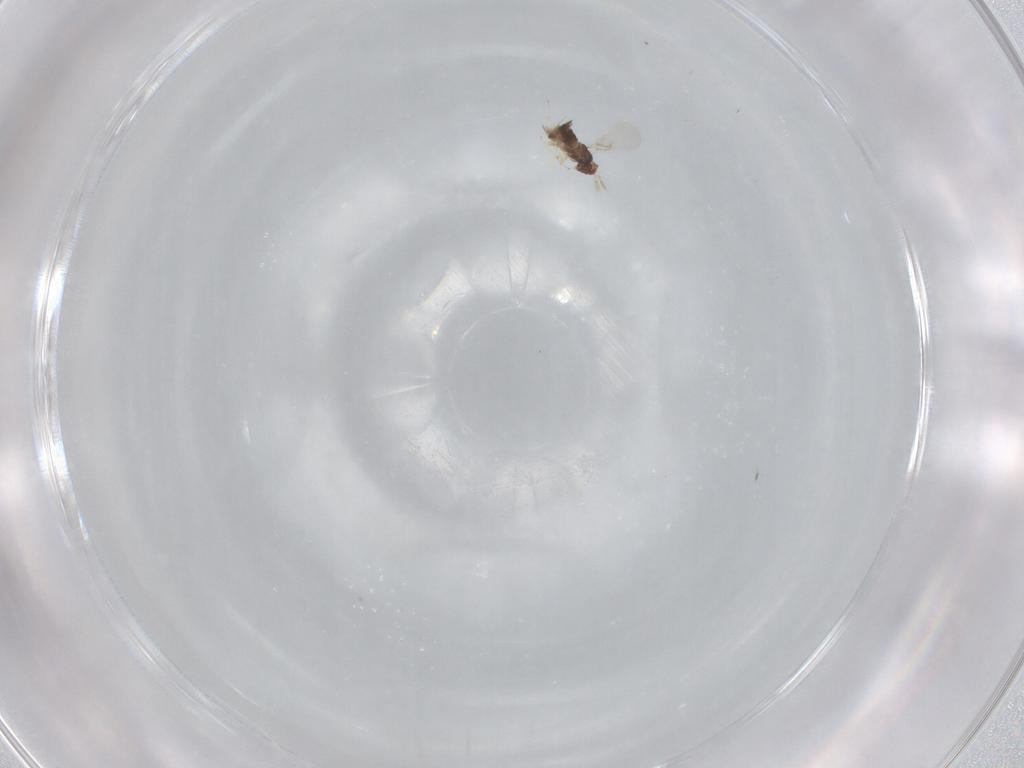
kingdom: Animalia
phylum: Arthropoda
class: Insecta
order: Hymenoptera
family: Trichogrammatidae
